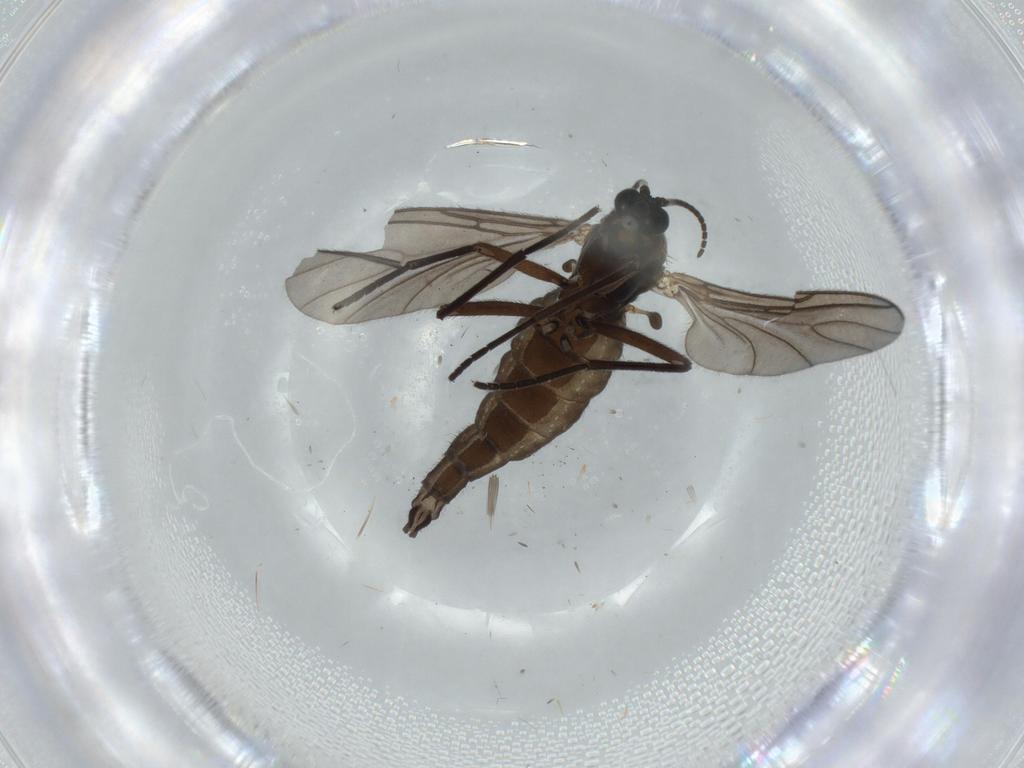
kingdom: Animalia
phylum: Arthropoda
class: Insecta
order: Diptera
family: Sciaridae
